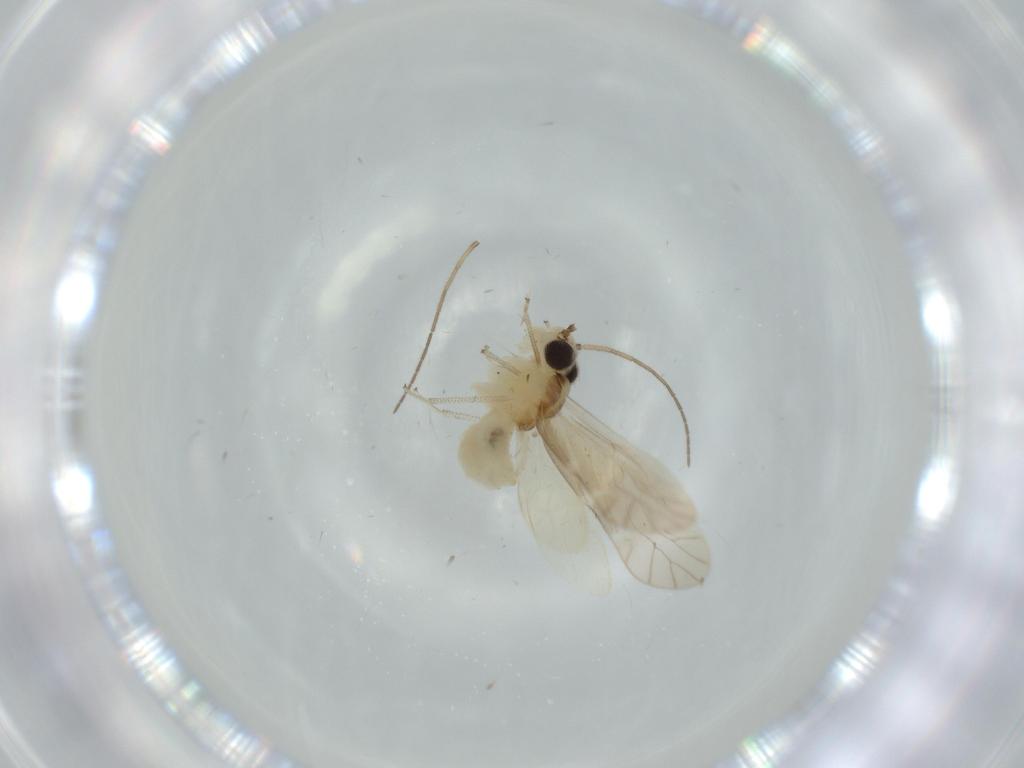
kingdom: Animalia
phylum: Arthropoda
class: Insecta
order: Psocodea
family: Caeciliusidae
